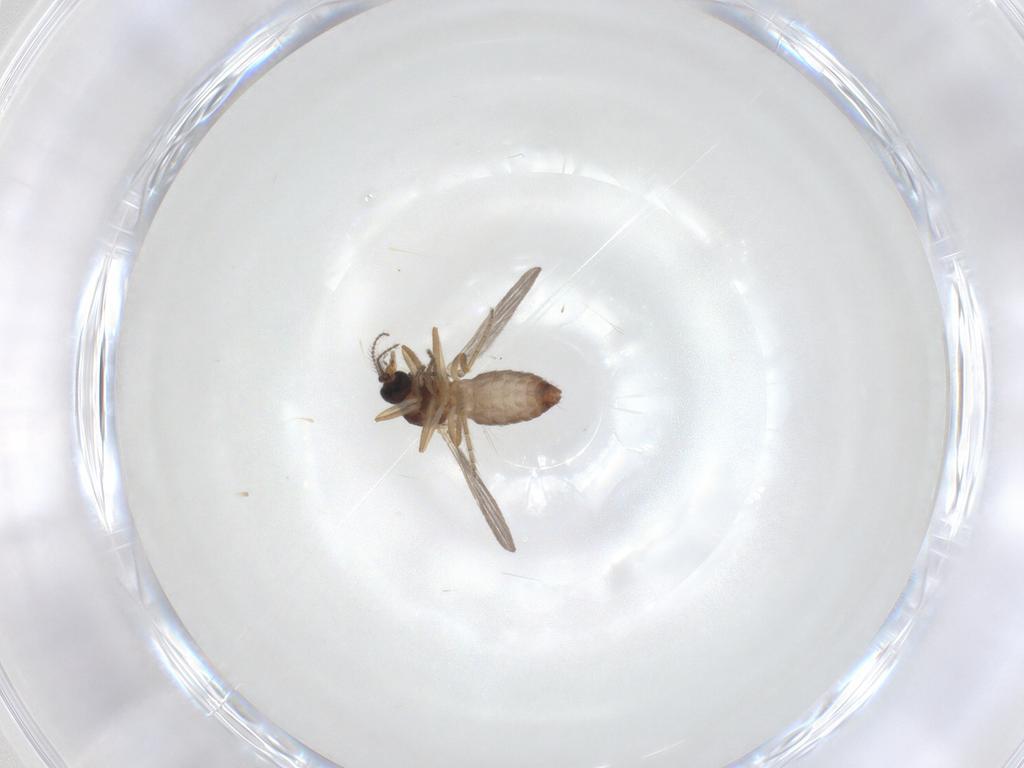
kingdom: Animalia
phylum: Arthropoda
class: Insecta
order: Diptera
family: Ceratopogonidae
